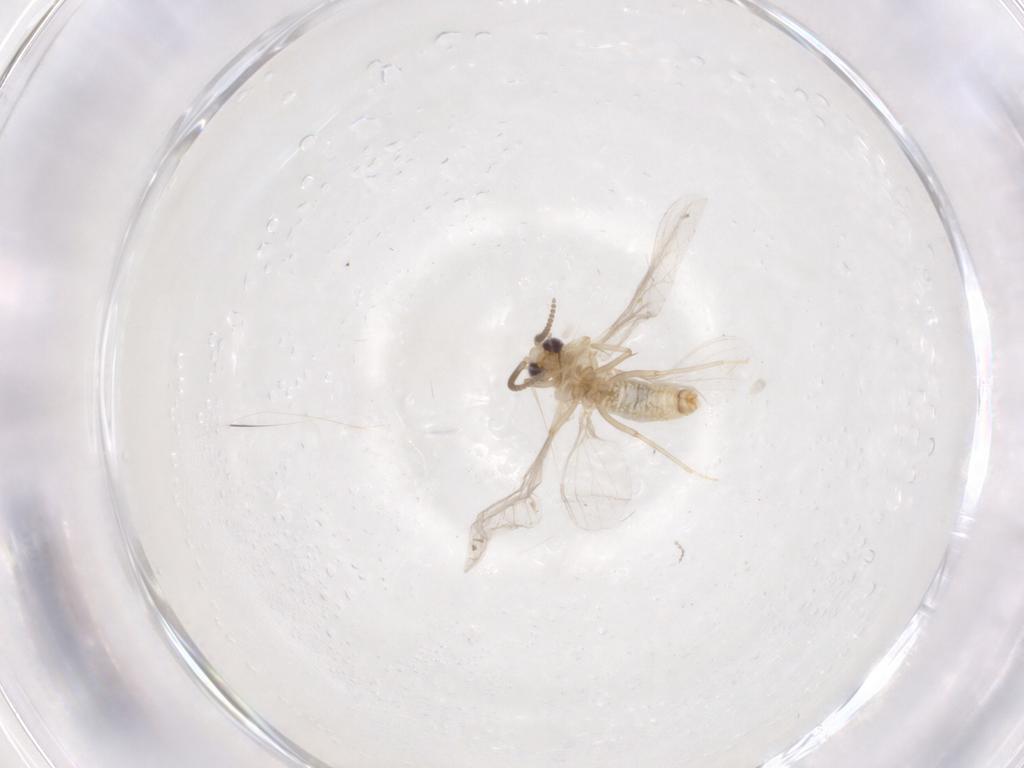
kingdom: Animalia
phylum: Arthropoda
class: Insecta
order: Neuroptera
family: Coniopterygidae
